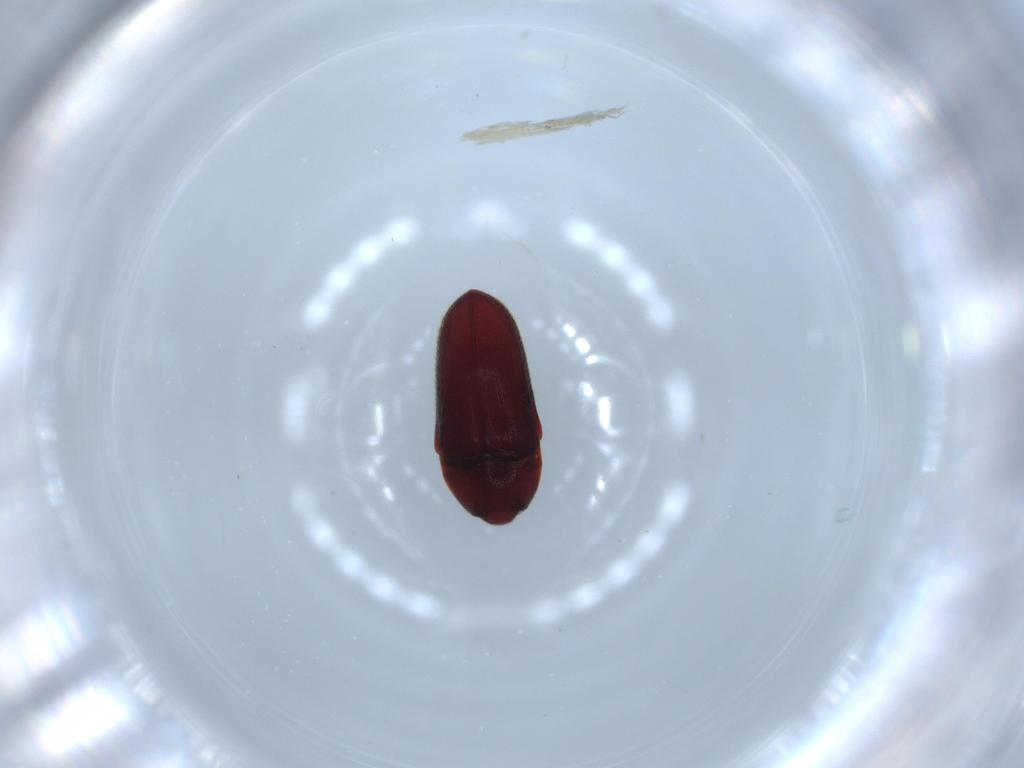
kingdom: Animalia
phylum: Arthropoda
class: Insecta
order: Coleoptera
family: Throscidae
